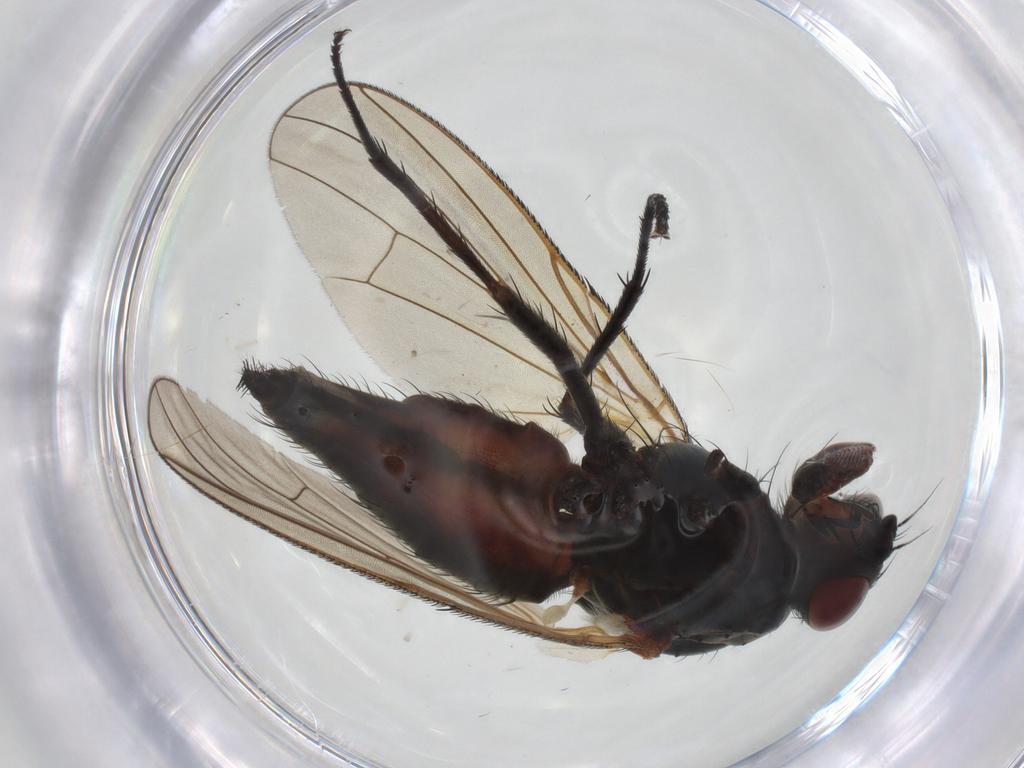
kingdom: Animalia
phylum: Arthropoda
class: Insecta
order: Diptera
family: Anthomyiidae
